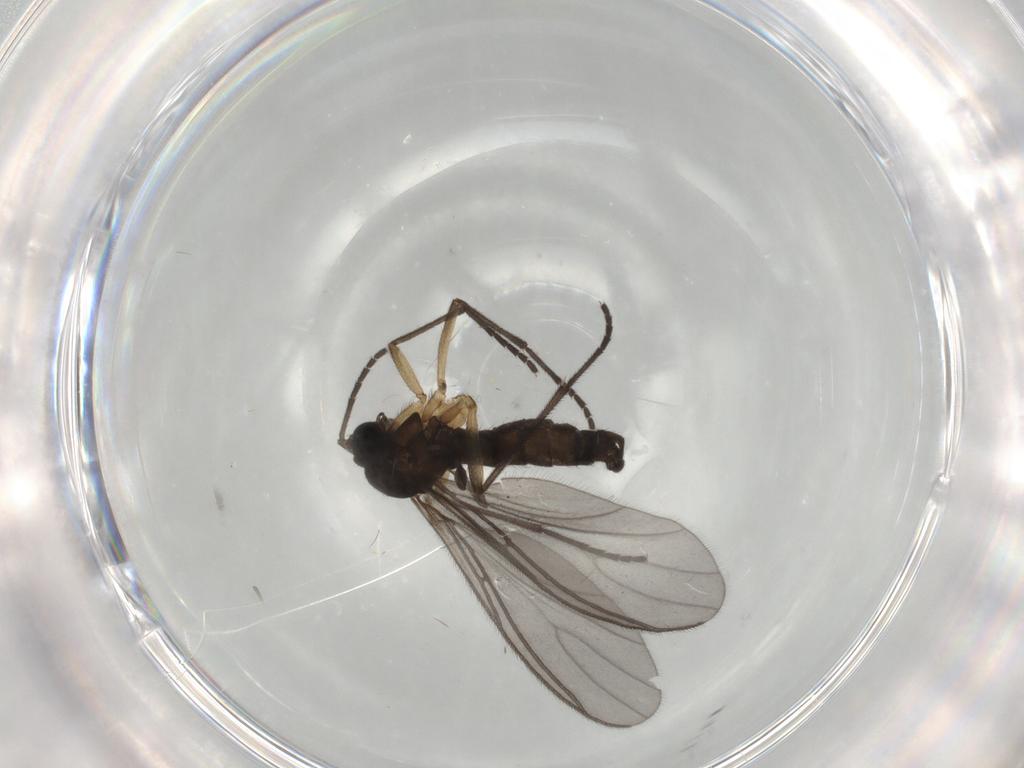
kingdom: Animalia
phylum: Arthropoda
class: Insecta
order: Diptera
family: Sciaridae
